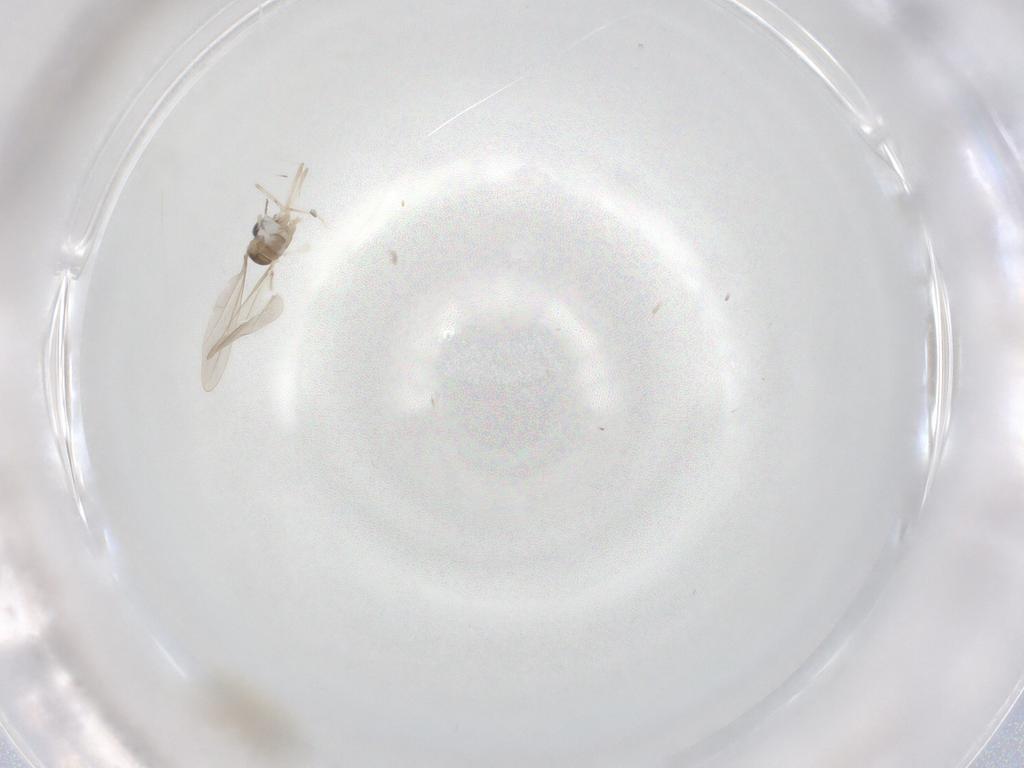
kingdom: Animalia
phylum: Arthropoda
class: Insecta
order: Diptera
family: Cecidomyiidae
